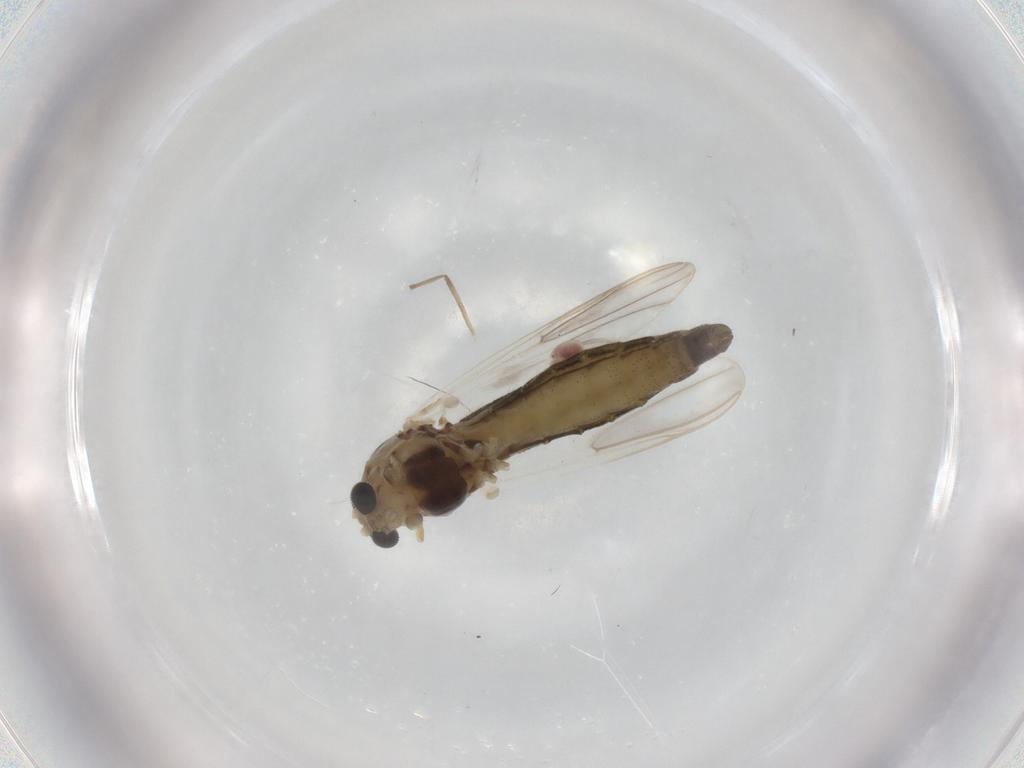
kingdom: Animalia
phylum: Arthropoda
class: Insecta
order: Diptera
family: Chironomidae
